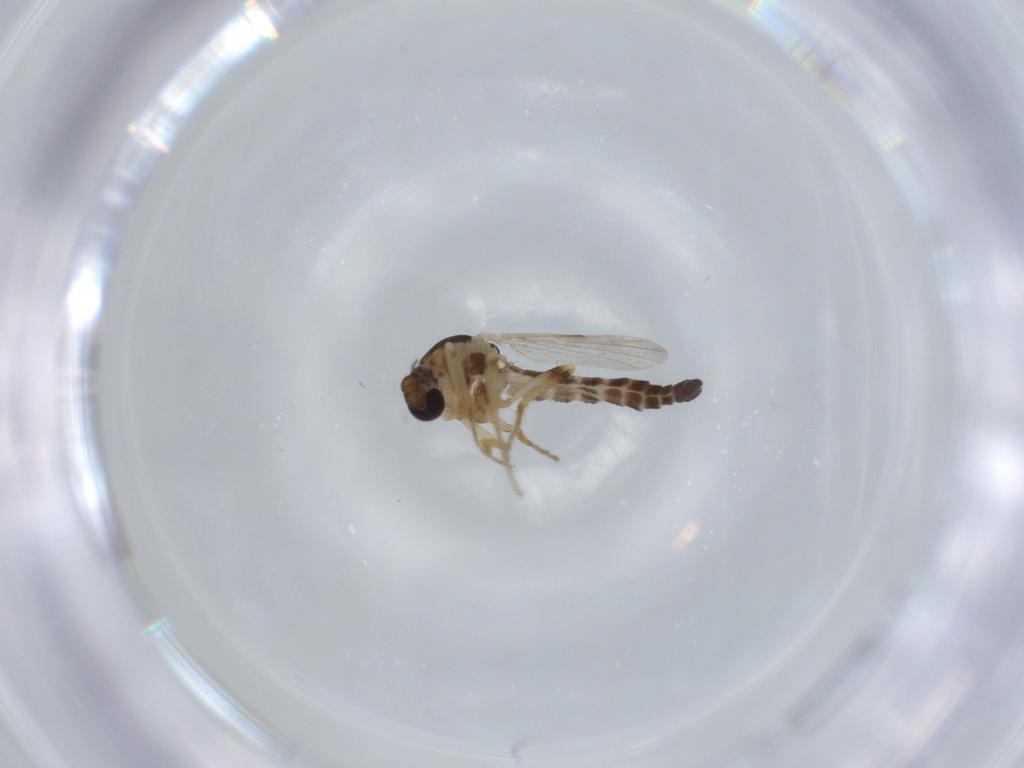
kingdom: Animalia
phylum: Arthropoda
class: Insecta
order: Diptera
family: Ceratopogonidae
